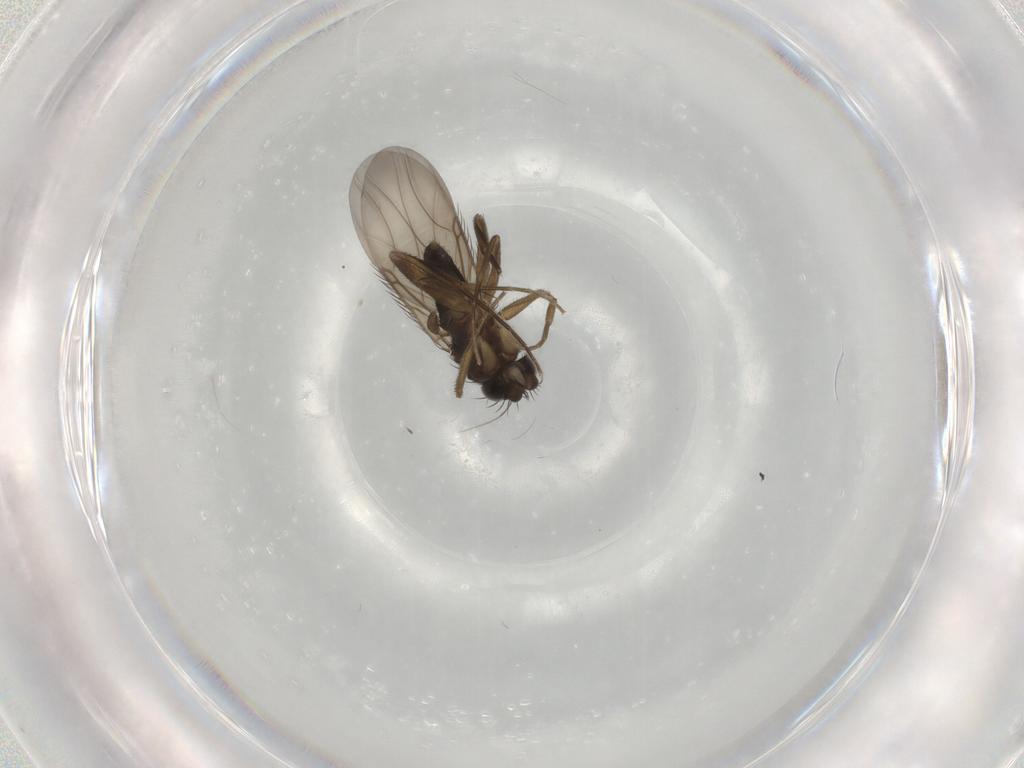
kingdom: Animalia
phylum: Arthropoda
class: Insecta
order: Diptera
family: Phoridae
